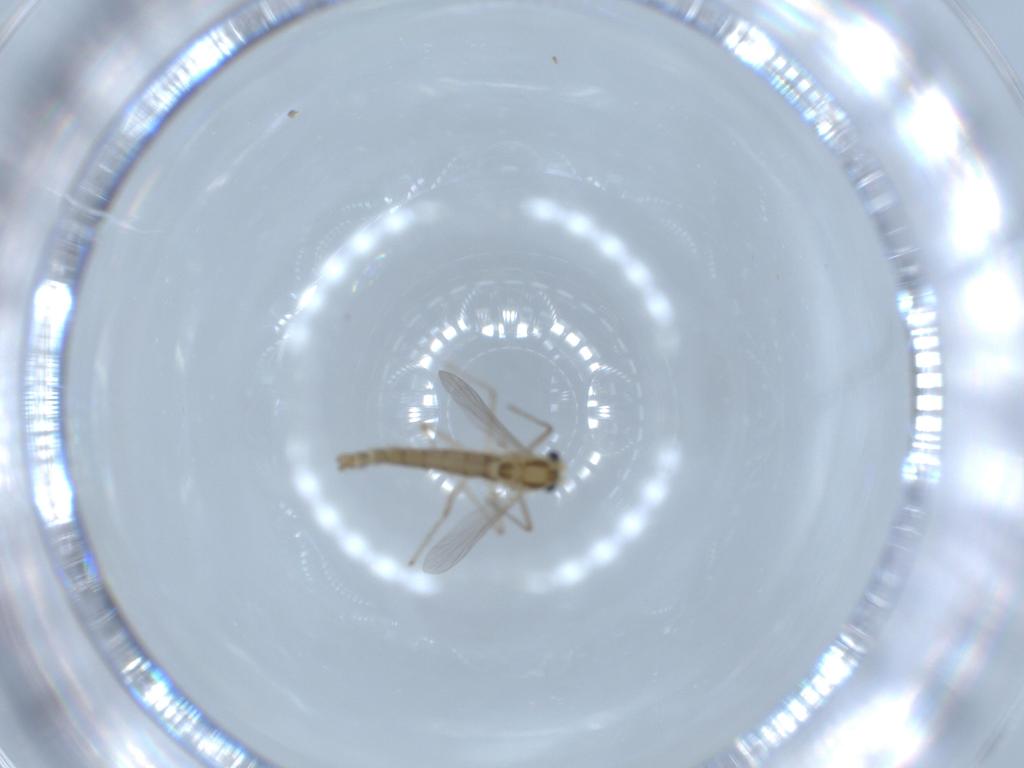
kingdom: Animalia
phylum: Arthropoda
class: Insecta
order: Diptera
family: Chironomidae
